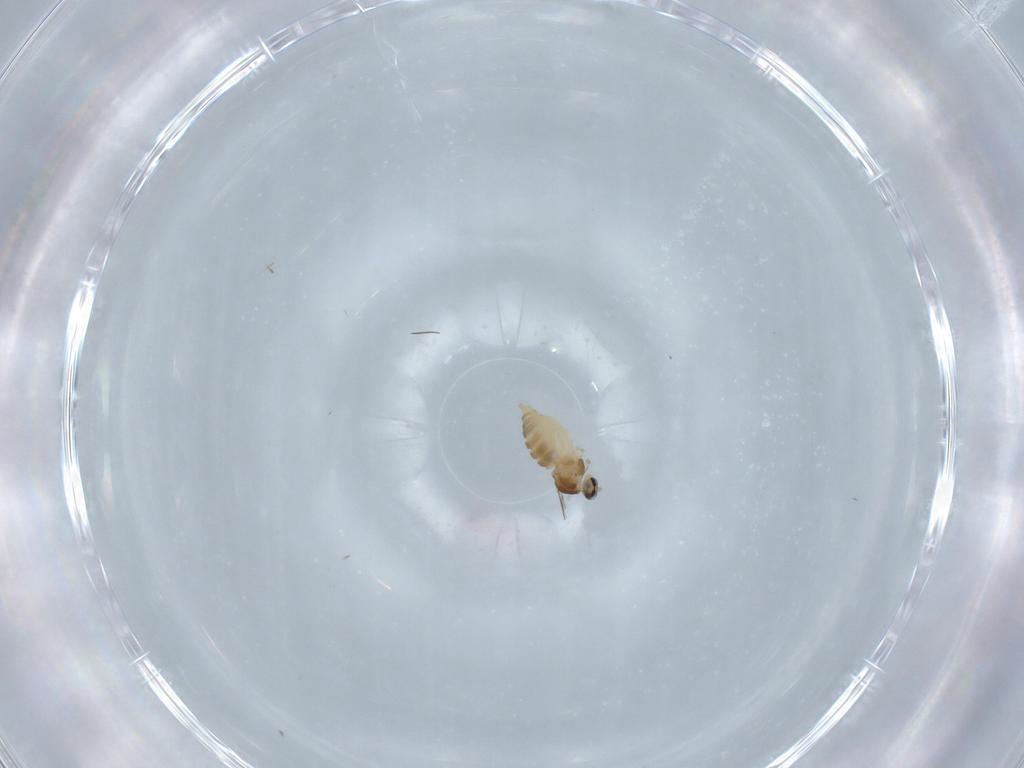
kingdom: Animalia
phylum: Arthropoda
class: Insecta
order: Diptera
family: Cecidomyiidae
